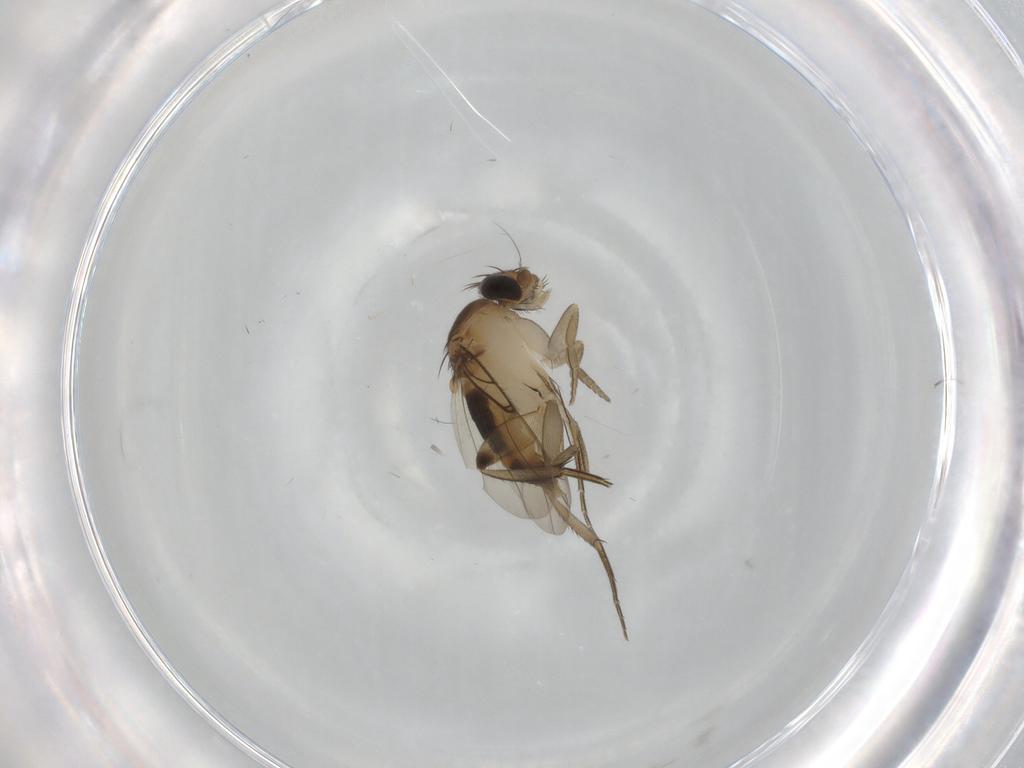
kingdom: Animalia
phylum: Arthropoda
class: Insecta
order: Diptera
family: Phoridae
